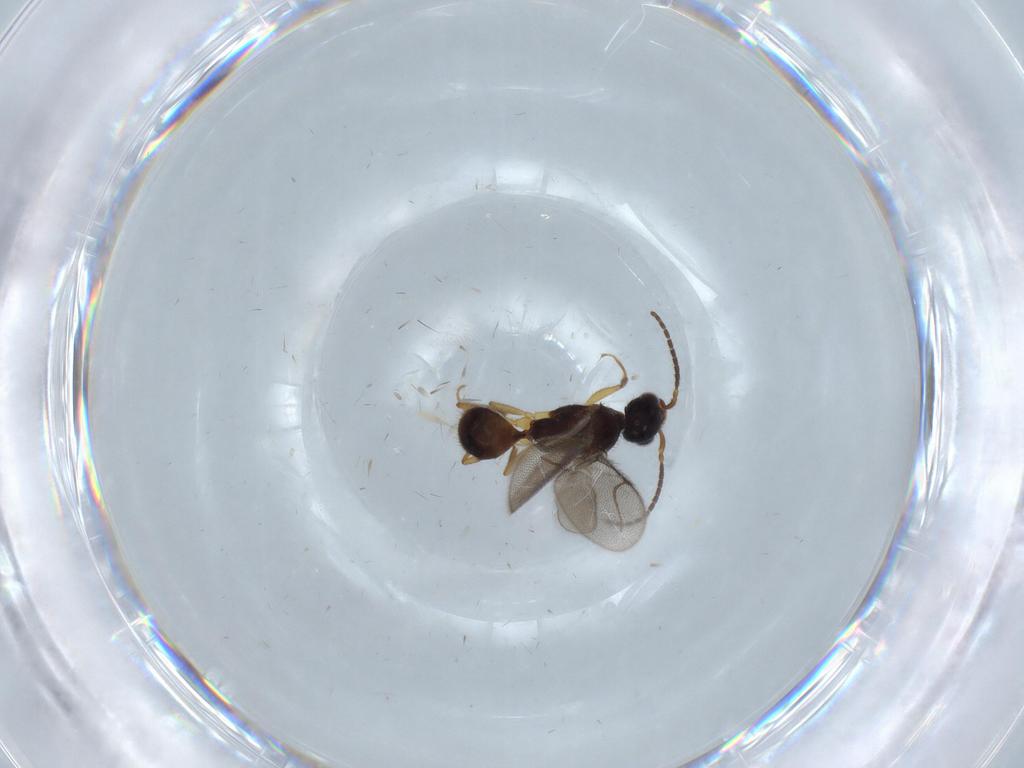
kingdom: Animalia
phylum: Arthropoda
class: Insecta
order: Hymenoptera
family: Bethylidae
